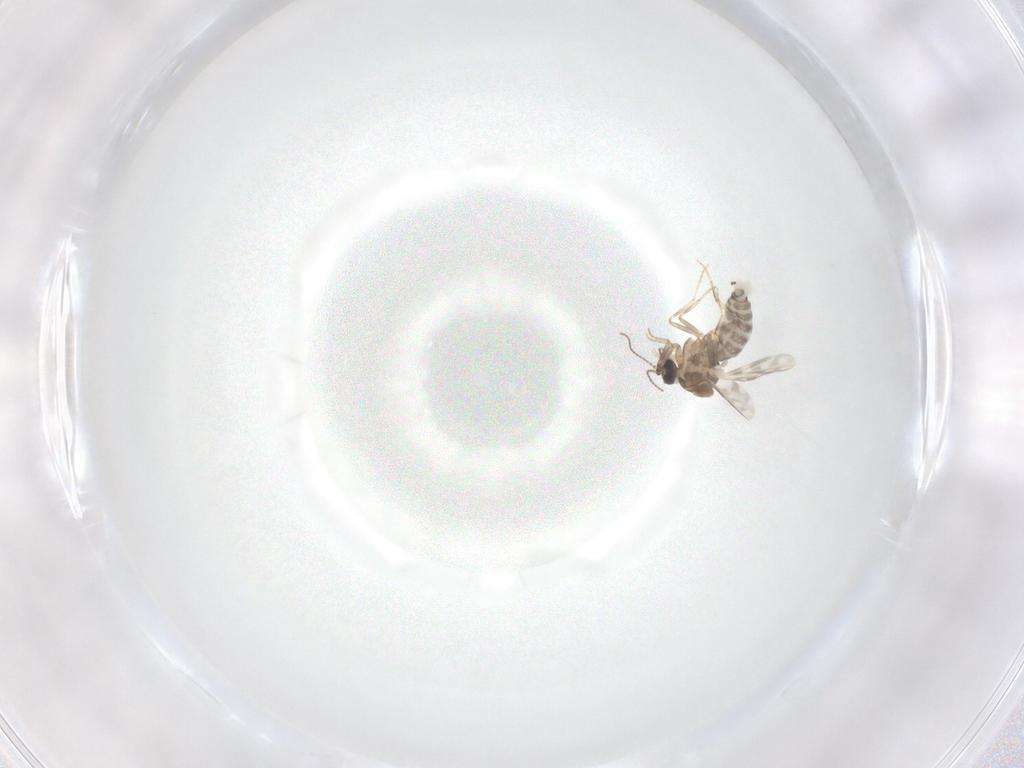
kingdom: Animalia
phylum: Arthropoda
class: Insecta
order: Diptera
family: Ceratopogonidae
